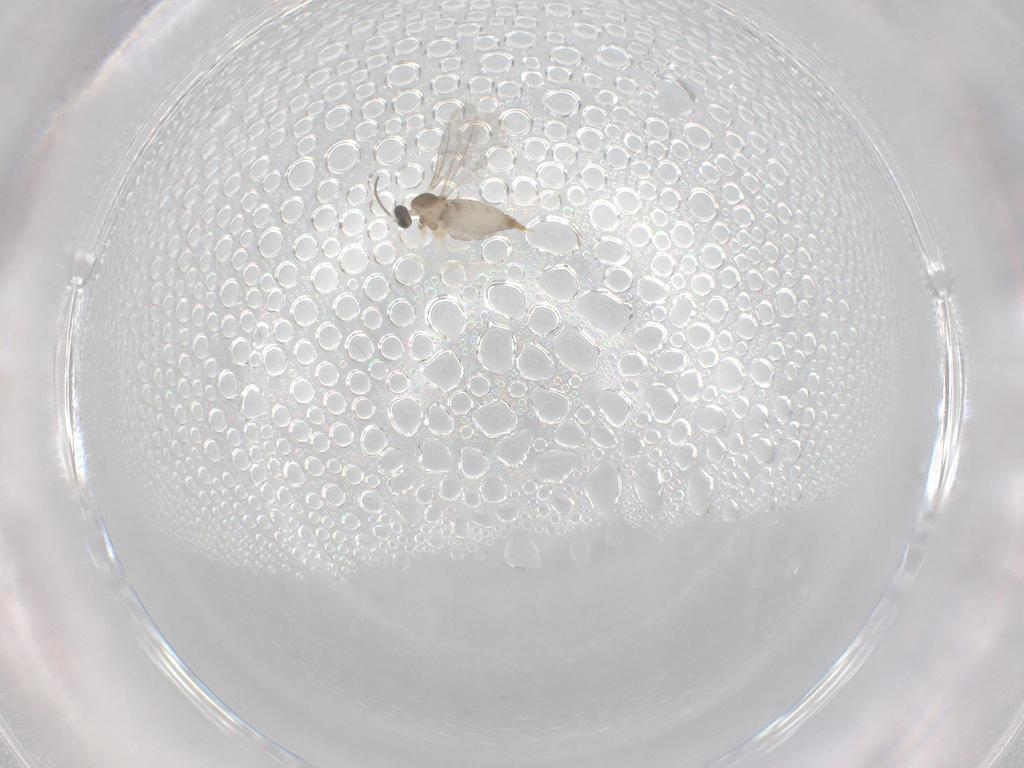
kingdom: Animalia
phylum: Arthropoda
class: Insecta
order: Diptera
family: Cecidomyiidae
